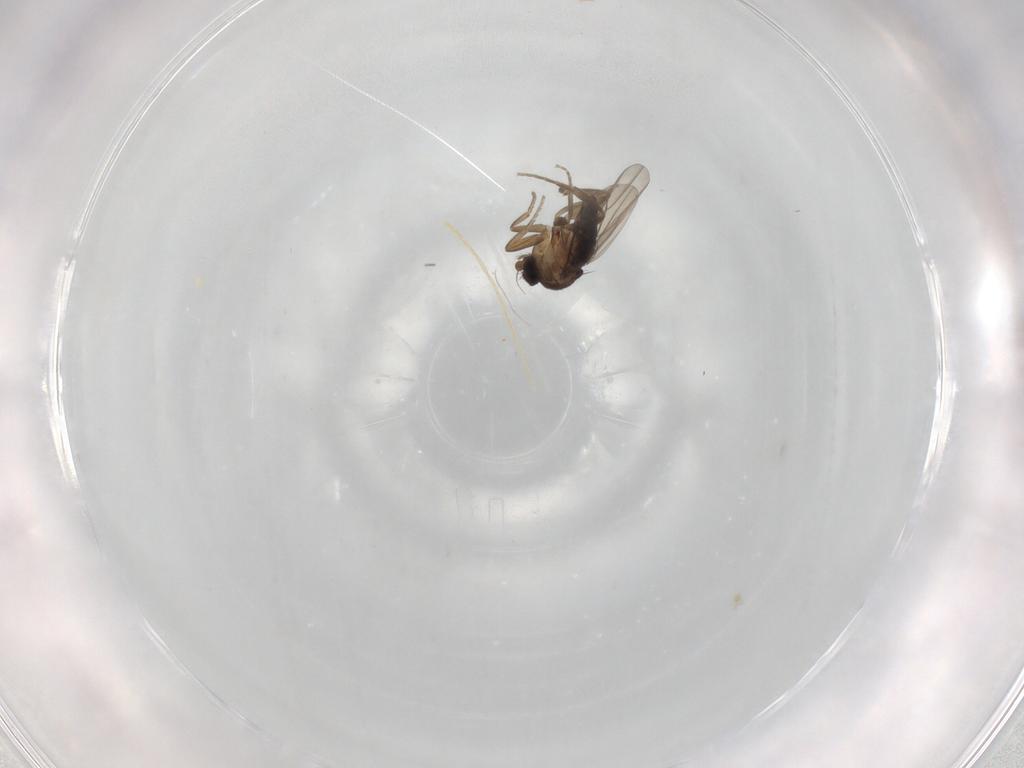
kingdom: Animalia
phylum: Arthropoda
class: Insecta
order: Diptera
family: Phoridae
